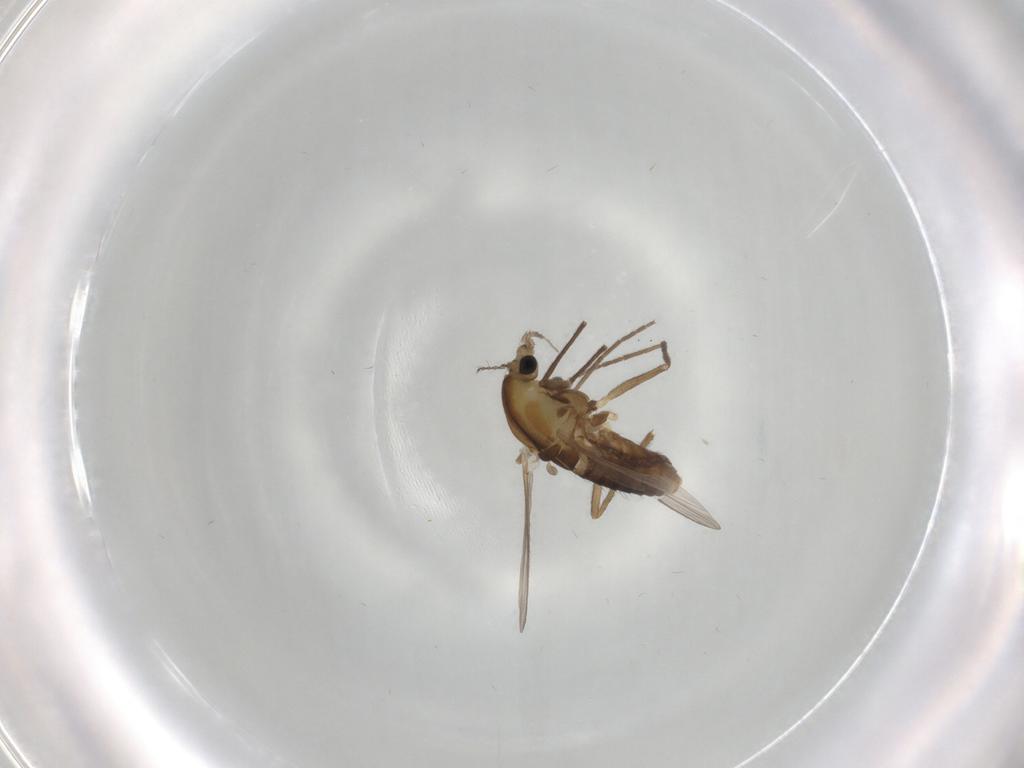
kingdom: Animalia
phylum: Arthropoda
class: Insecta
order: Diptera
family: Chironomidae
